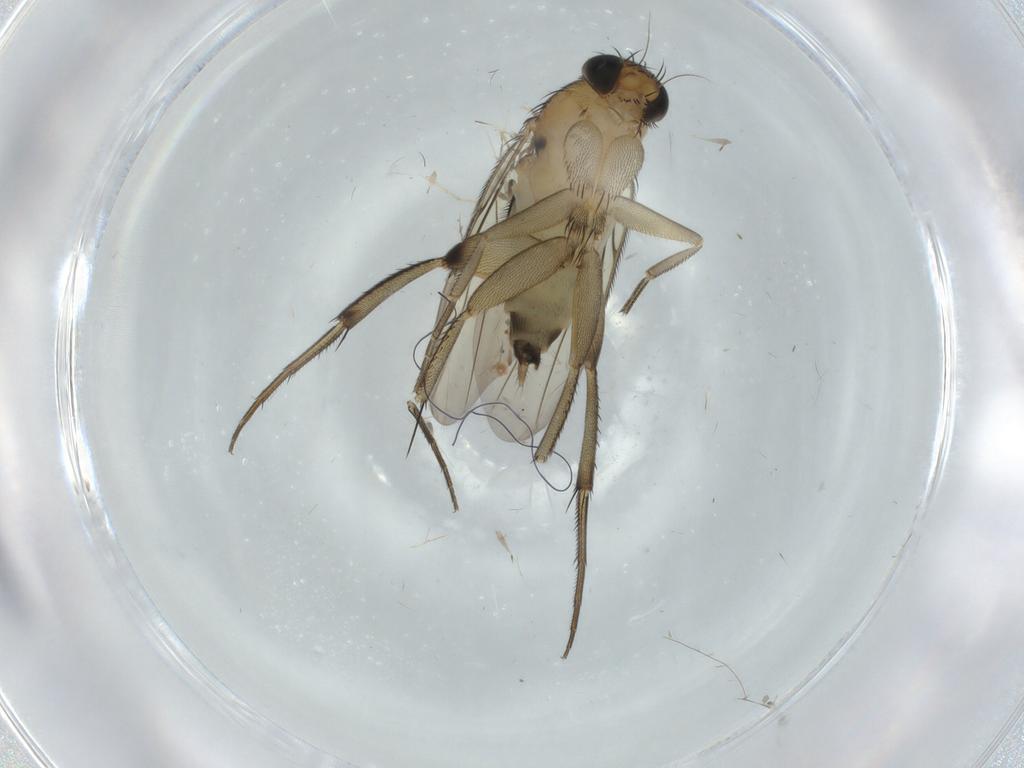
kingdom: Animalia
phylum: Arthropoda
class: Insecta
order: Diptera
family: Phoridae
